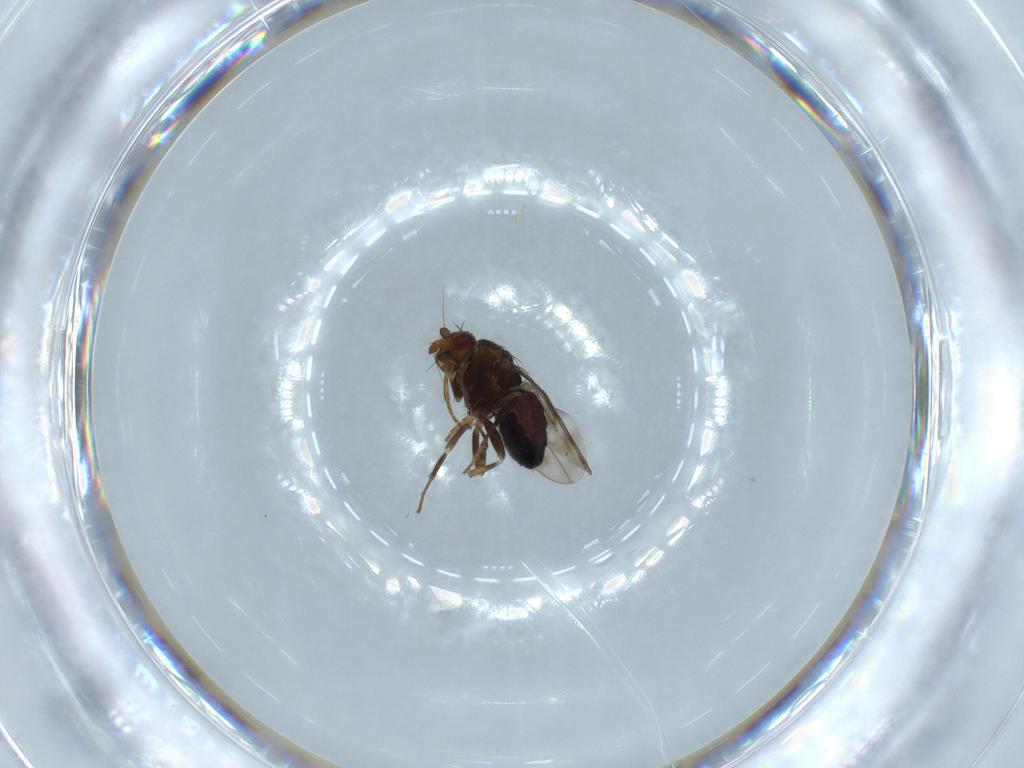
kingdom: Animalia
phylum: Arthropoda
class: Insecta
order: Diptera
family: Sphaeroceridae
